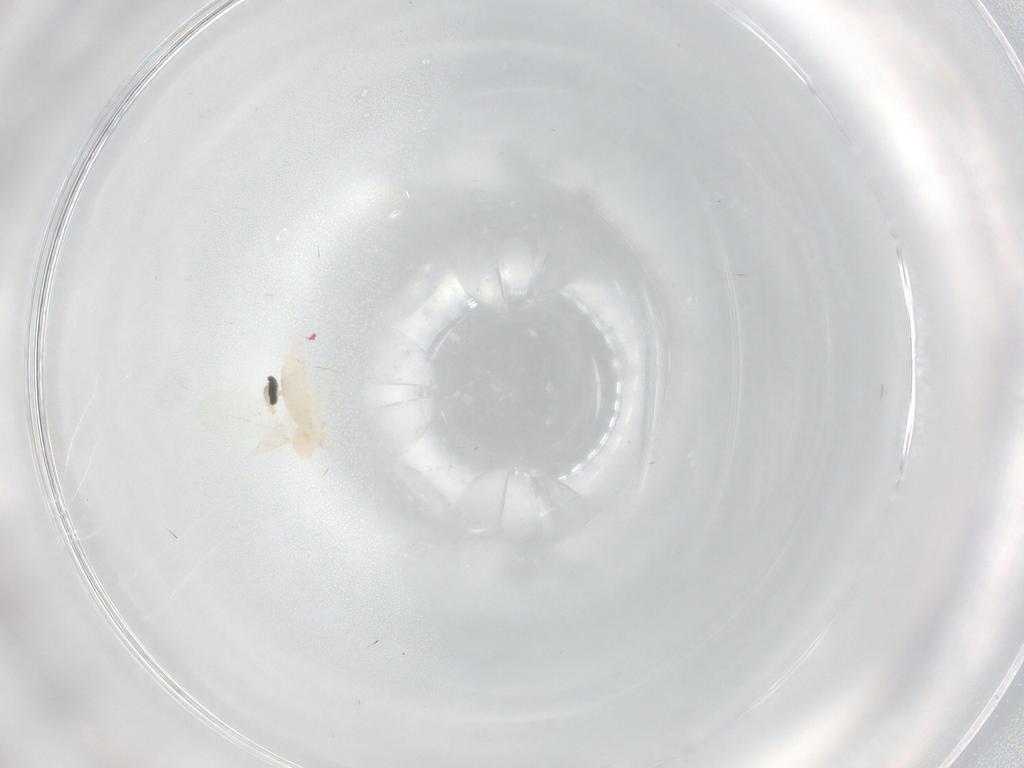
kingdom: Animalia
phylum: Arthropoda
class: Insecta
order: Diptera
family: Cecidomyiidae
